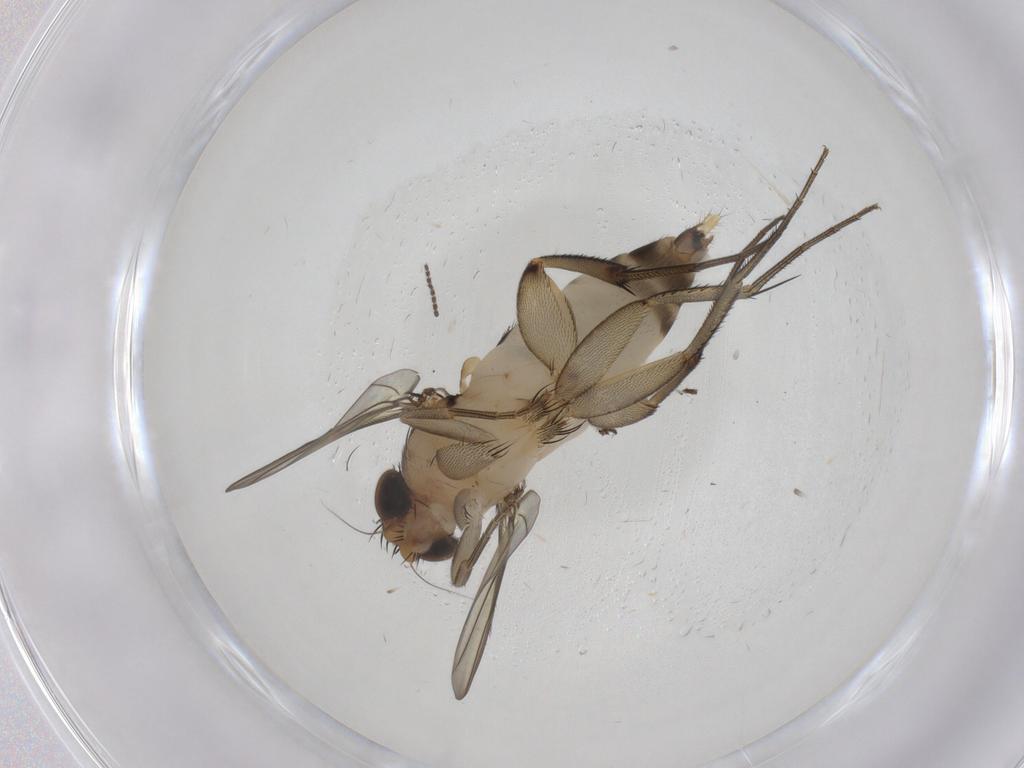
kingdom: Animalia
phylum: Arthropoda
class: Insecta
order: Diptera
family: Phoridae
